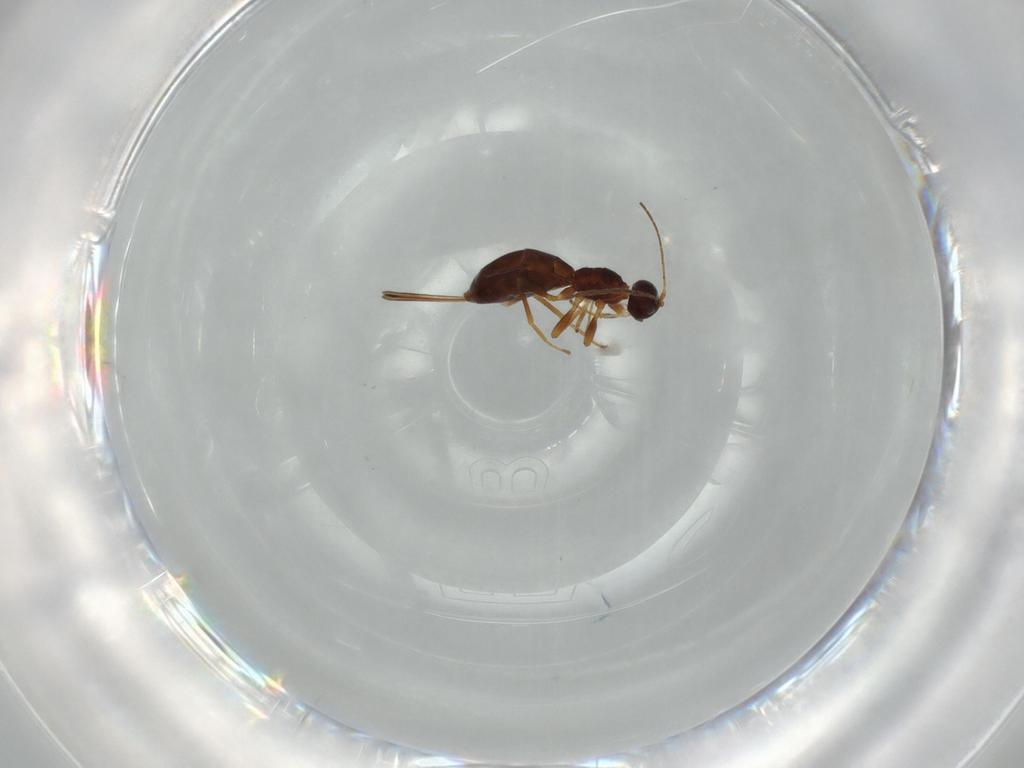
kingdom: Animalia
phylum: Arthropoda
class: Insecta
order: Hymenoptera
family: Braconidae
